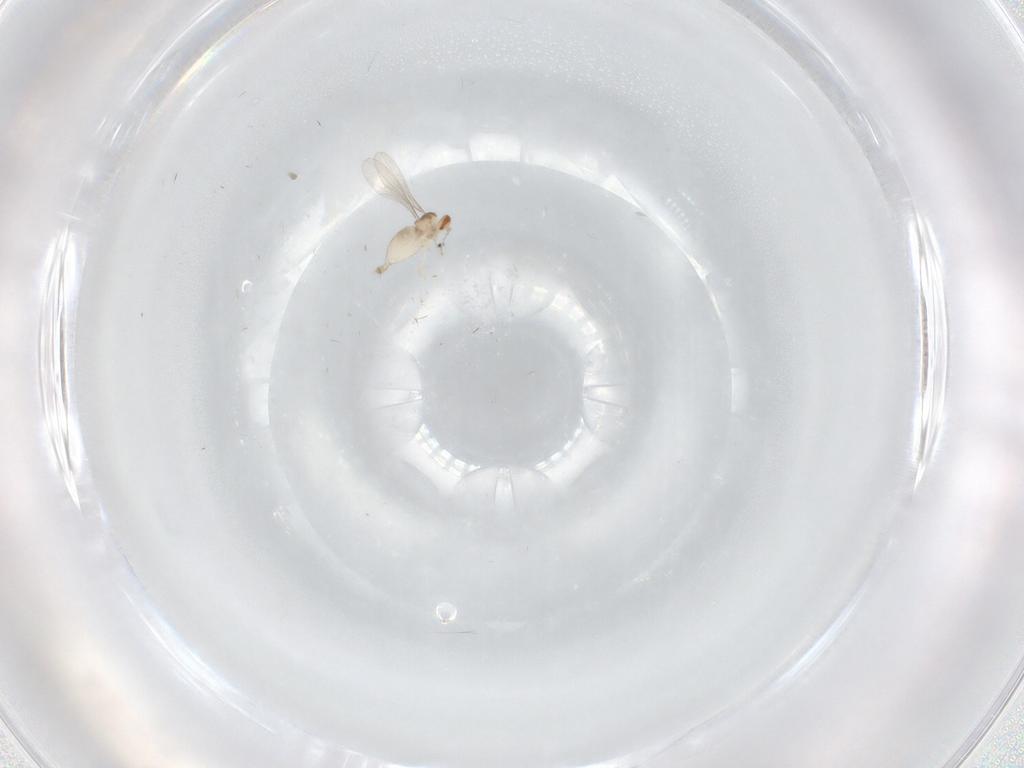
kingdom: Animalia
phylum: Arthropoda
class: Insecta
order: Diptera
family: Cecidomyiidae
